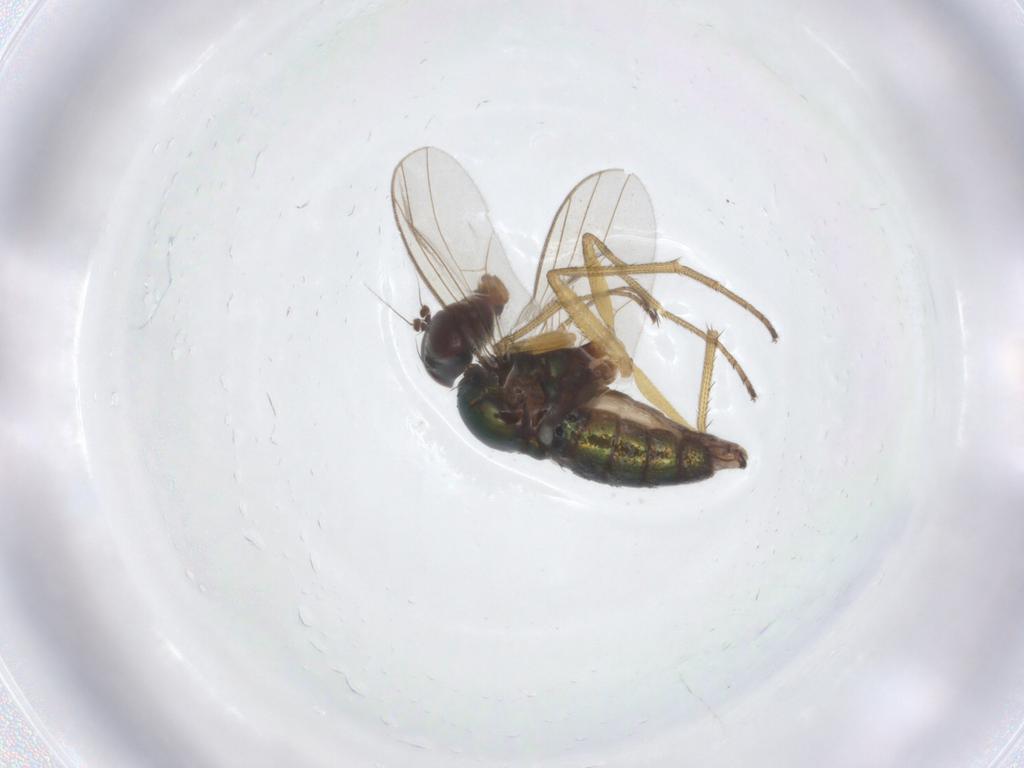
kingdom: Animalia
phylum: Arthropoda
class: Insecta
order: Diptera
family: Dolichopodidae
